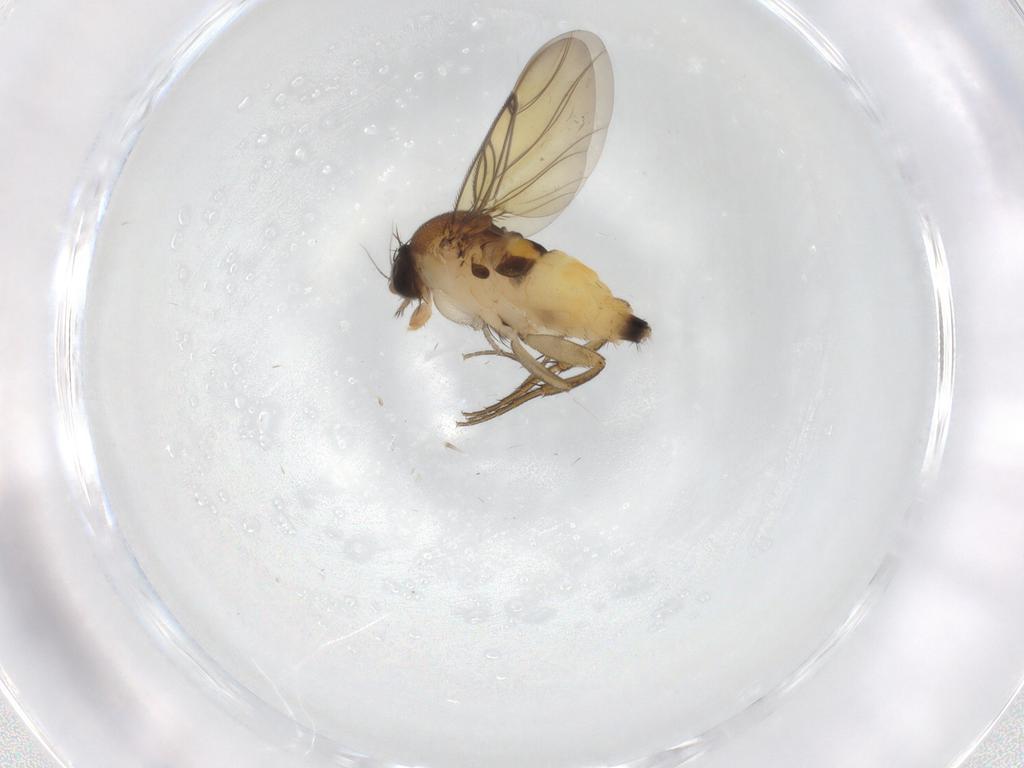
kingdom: Animalia
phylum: Arthropoda
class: Insecta
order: Diptera
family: Phoridae
